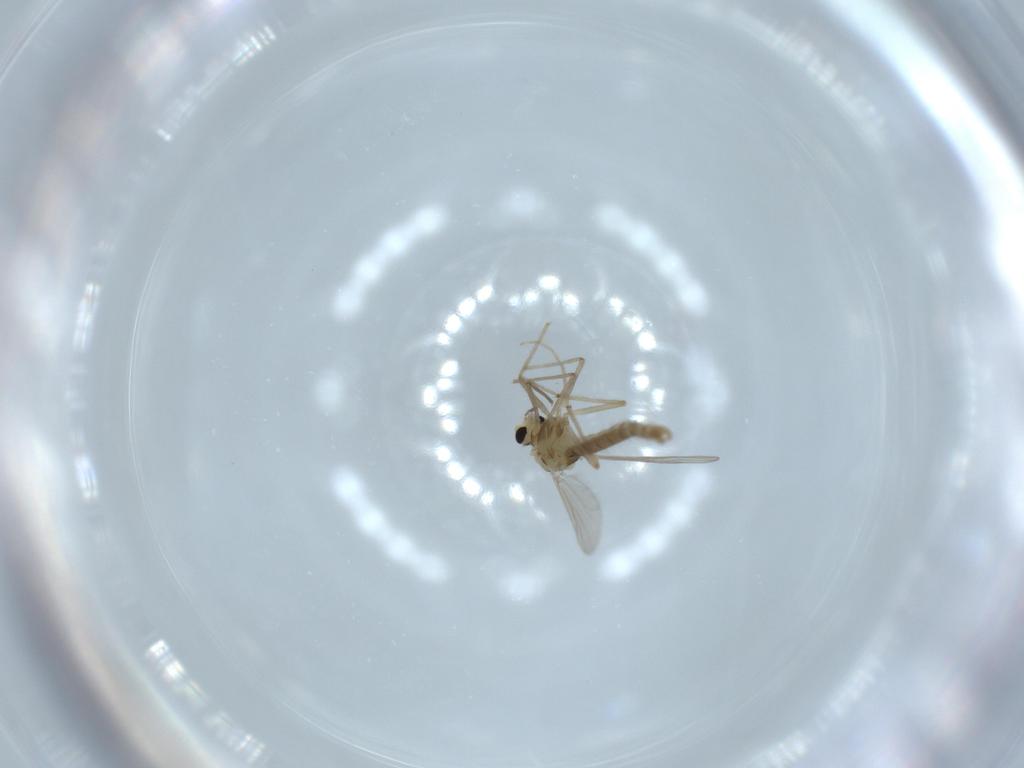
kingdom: Animalia
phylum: Arthropoda
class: Insecta
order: Diptera
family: Chironomidae
